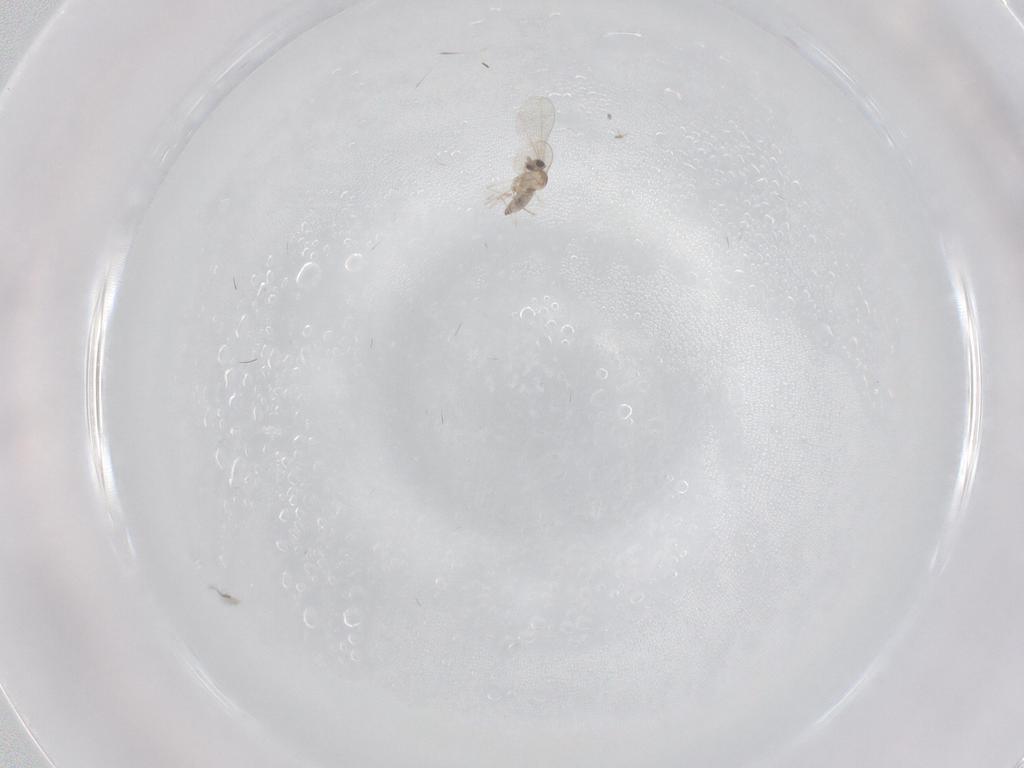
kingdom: Animalia
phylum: Arthropoda
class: Insecta
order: Diptera
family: Cecidomyiidae
